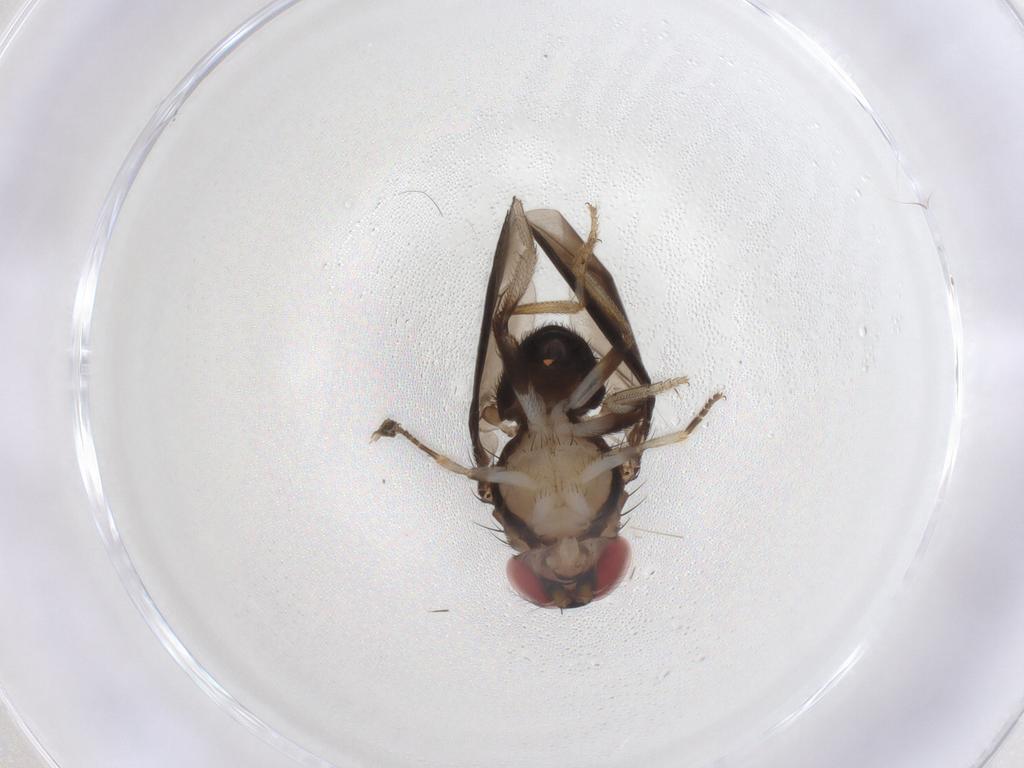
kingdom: Animalia
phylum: Arthropoda
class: Insecta
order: Diptera
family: Drosophilidae
